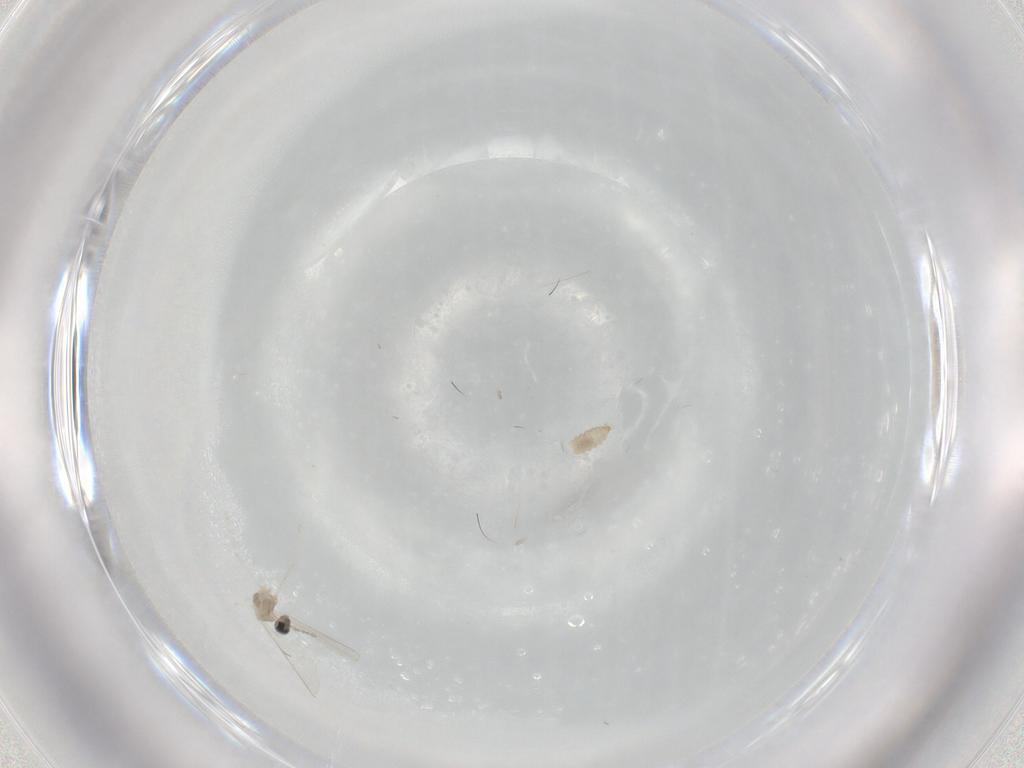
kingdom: Animalia
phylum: Arthropoda
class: Insecta
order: Diptera
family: Cecidomyiidae
